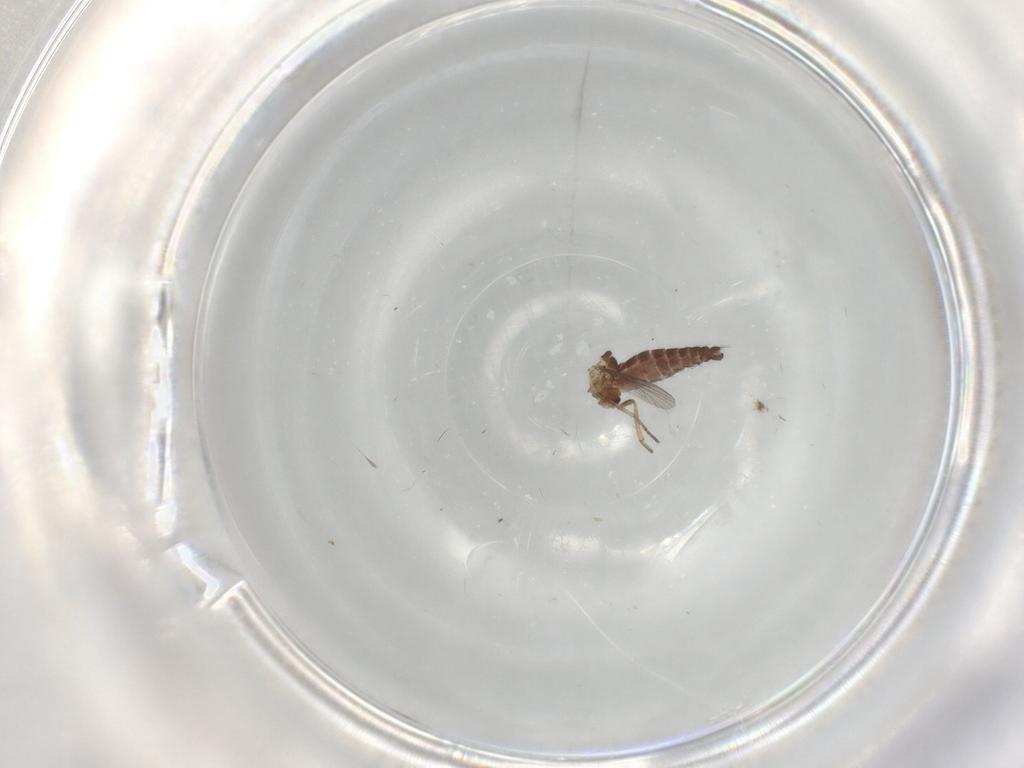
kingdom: Animalia
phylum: Arthropoda
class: Insecta
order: Diptera
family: Ceratopogonidae
